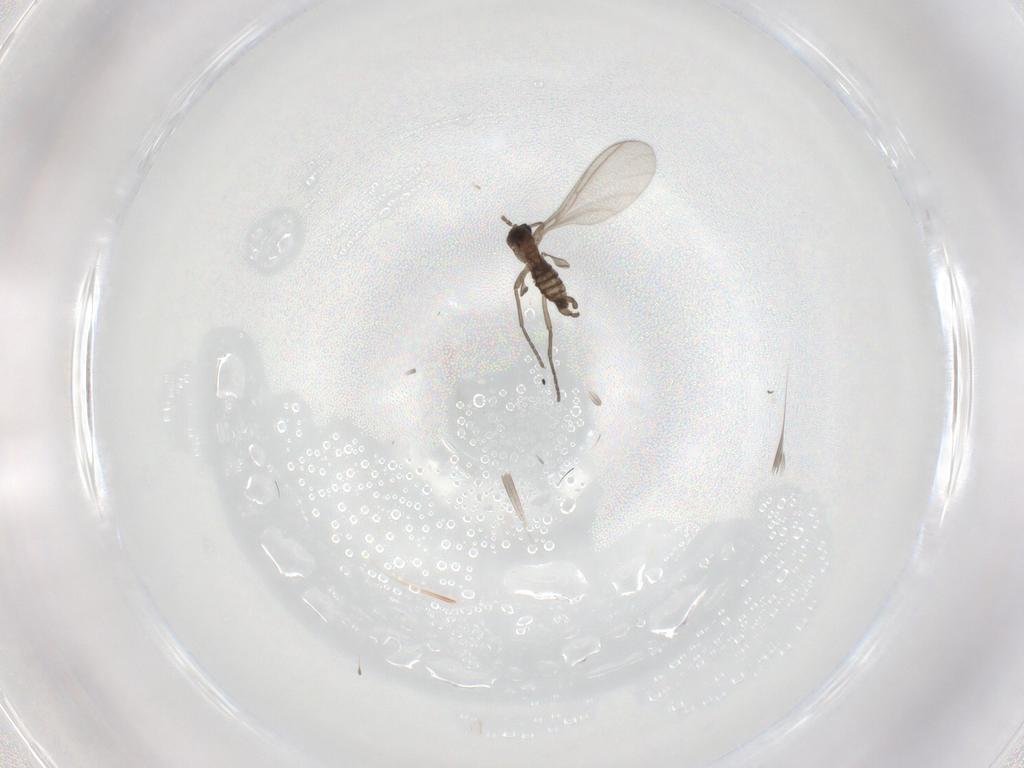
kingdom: Animalia
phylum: Arthropoda
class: Insecta
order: Diptera
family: Sciaridae
